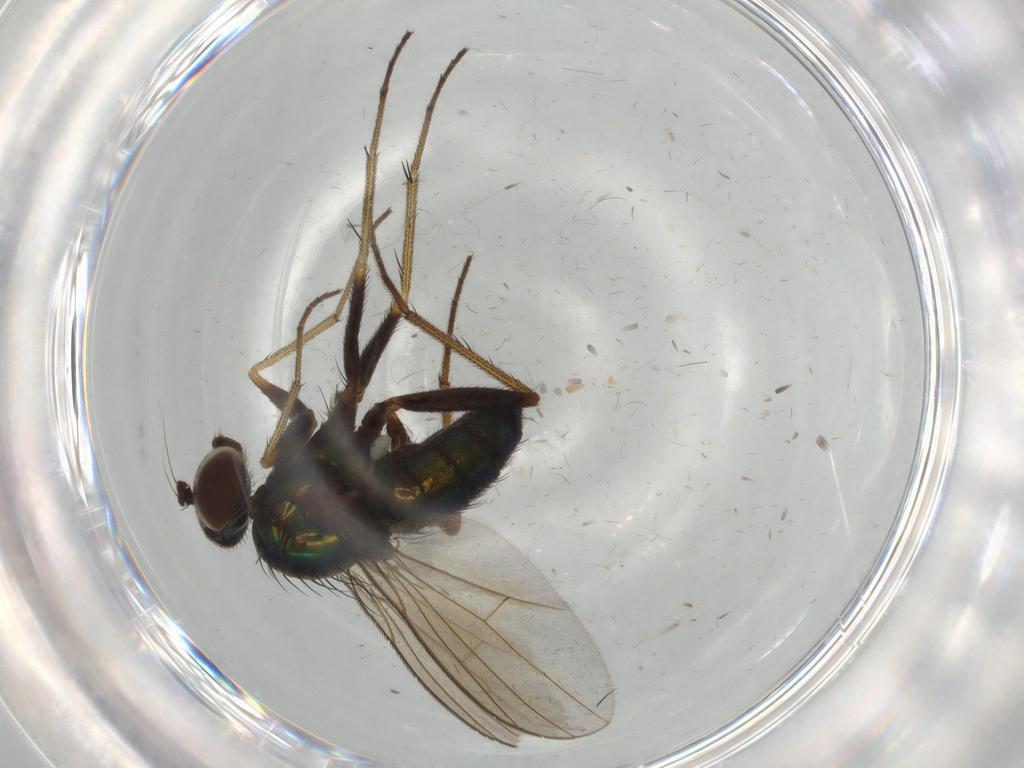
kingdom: Animalia
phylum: Arthropoda
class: Insecta
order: Diptera
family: Dolichopodidae
